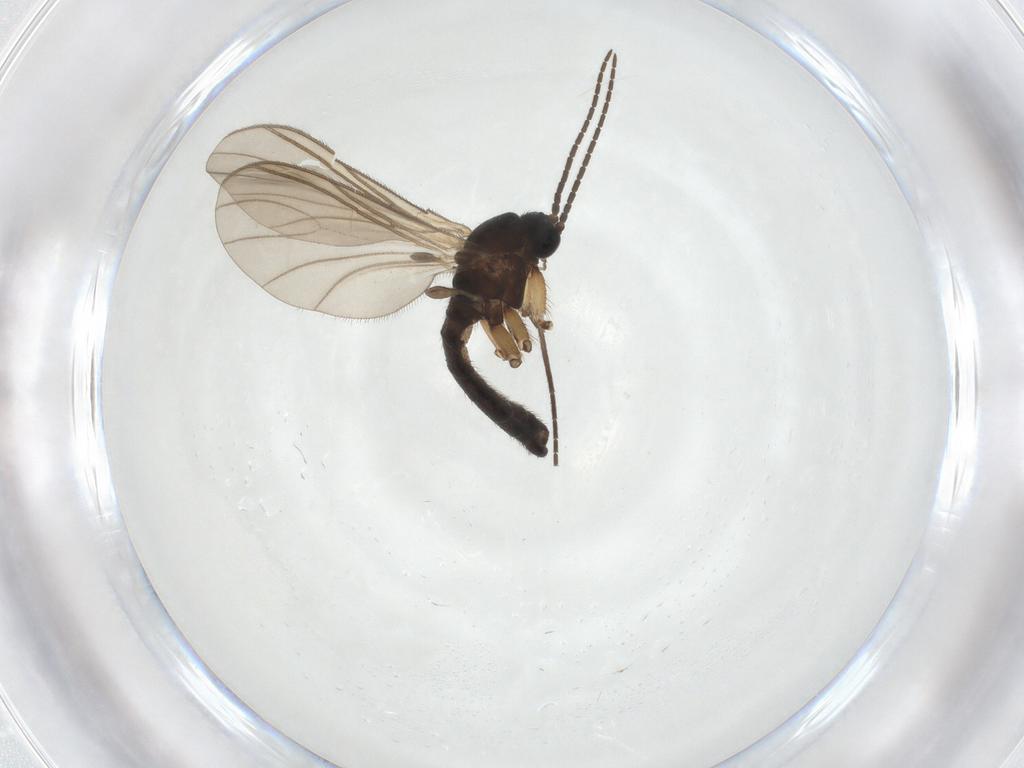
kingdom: Animalia
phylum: Arthropoda
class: Insecta
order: Diptera
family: Sciaridae
